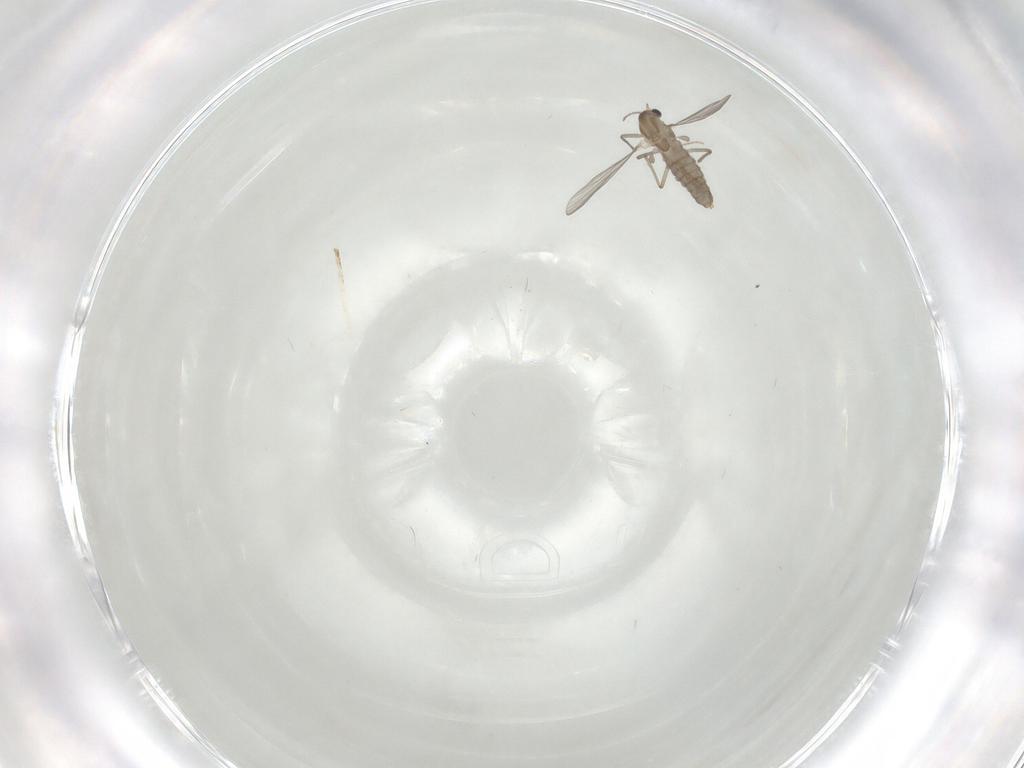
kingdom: Animalia
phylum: Arthropoda
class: Insecta
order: Diptera
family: Chironomidae
